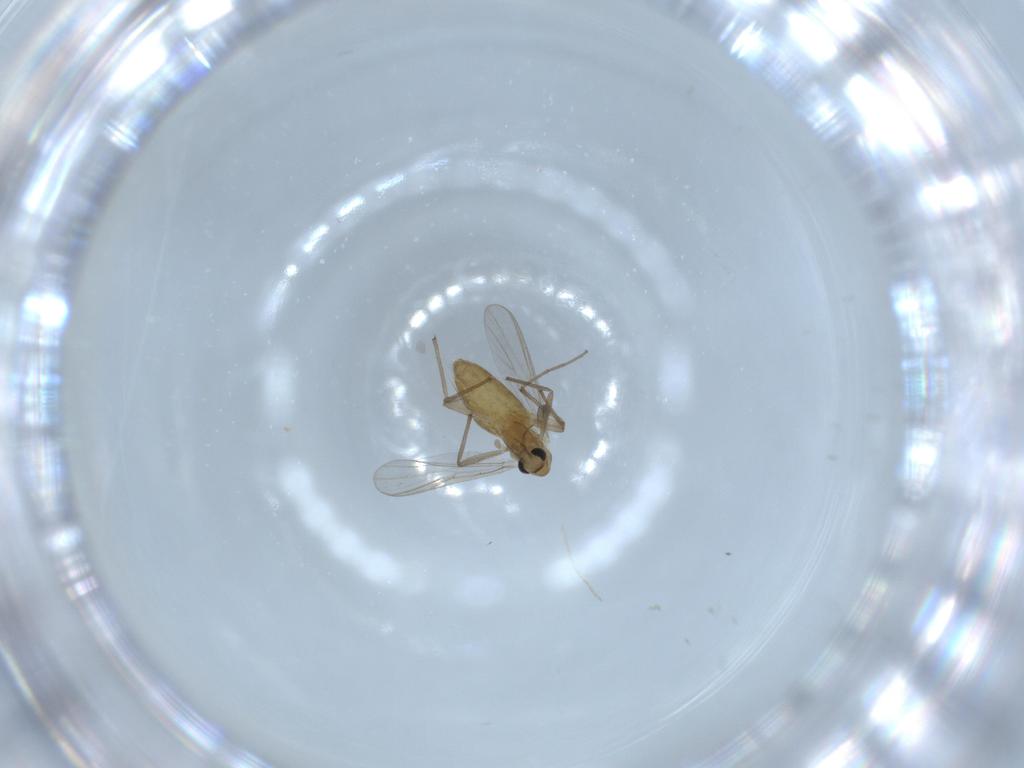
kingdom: Animalia
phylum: Arthropoda
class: Insecta
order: Diptera
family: Chironomidae
